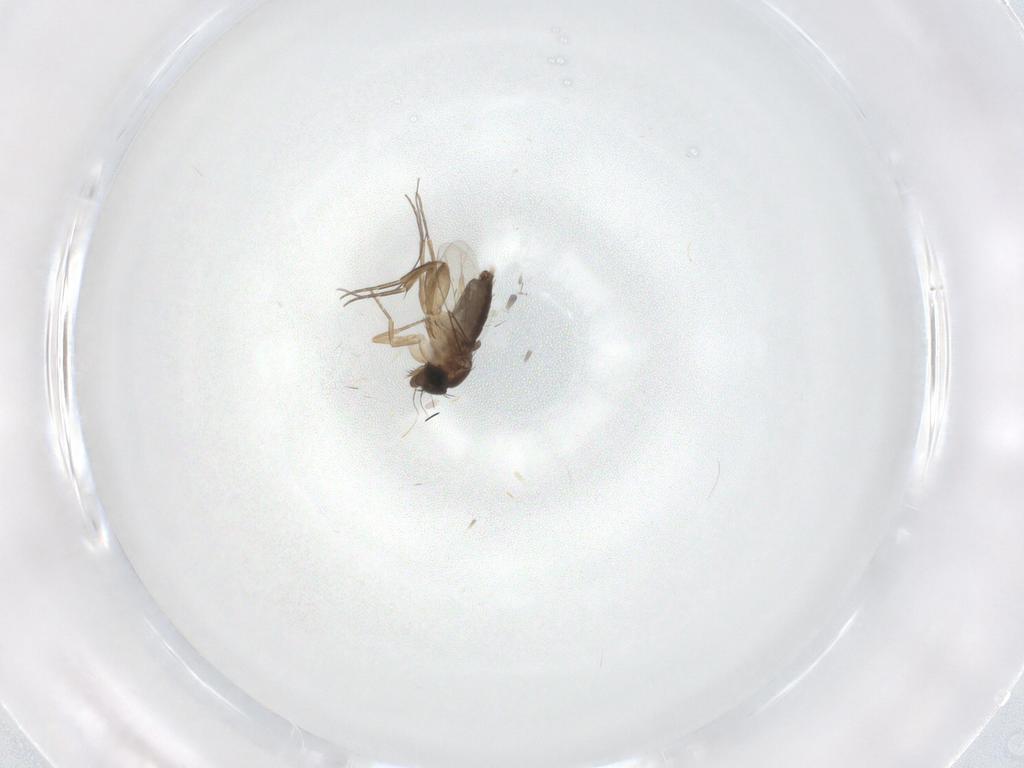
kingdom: Animalia
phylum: Arthropoda
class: Insecta
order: Diptera
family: Phoridae
